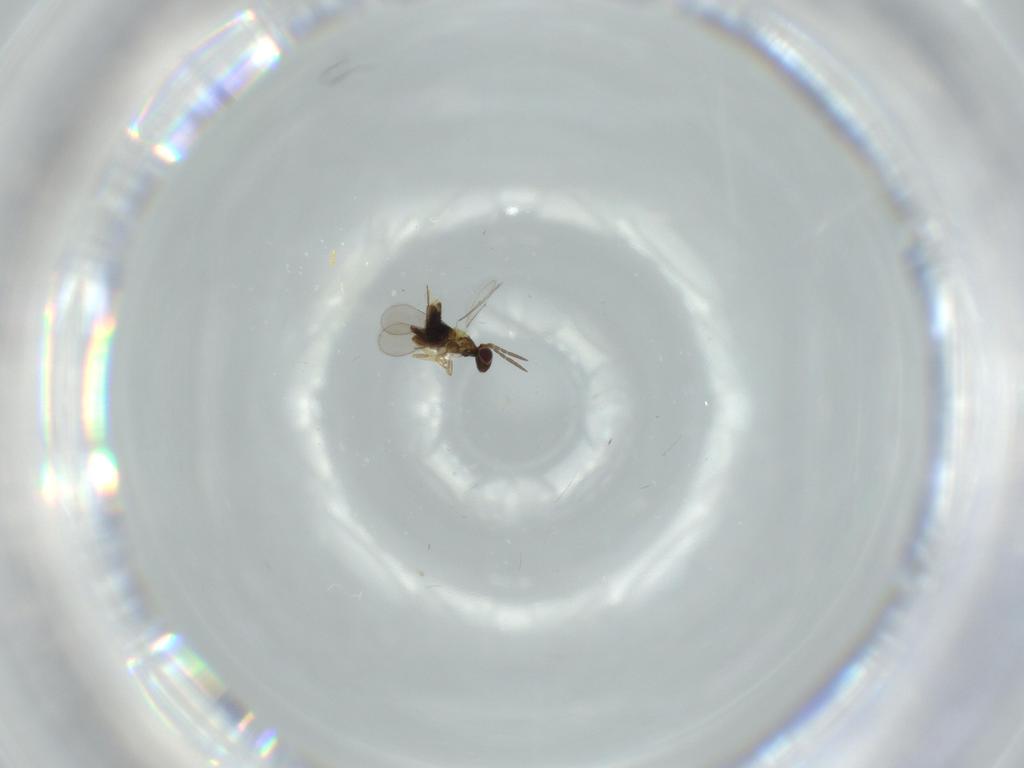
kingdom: Animalia
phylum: Arthropoda
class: Insecta
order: Hymenoptera
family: Aphelinidae
